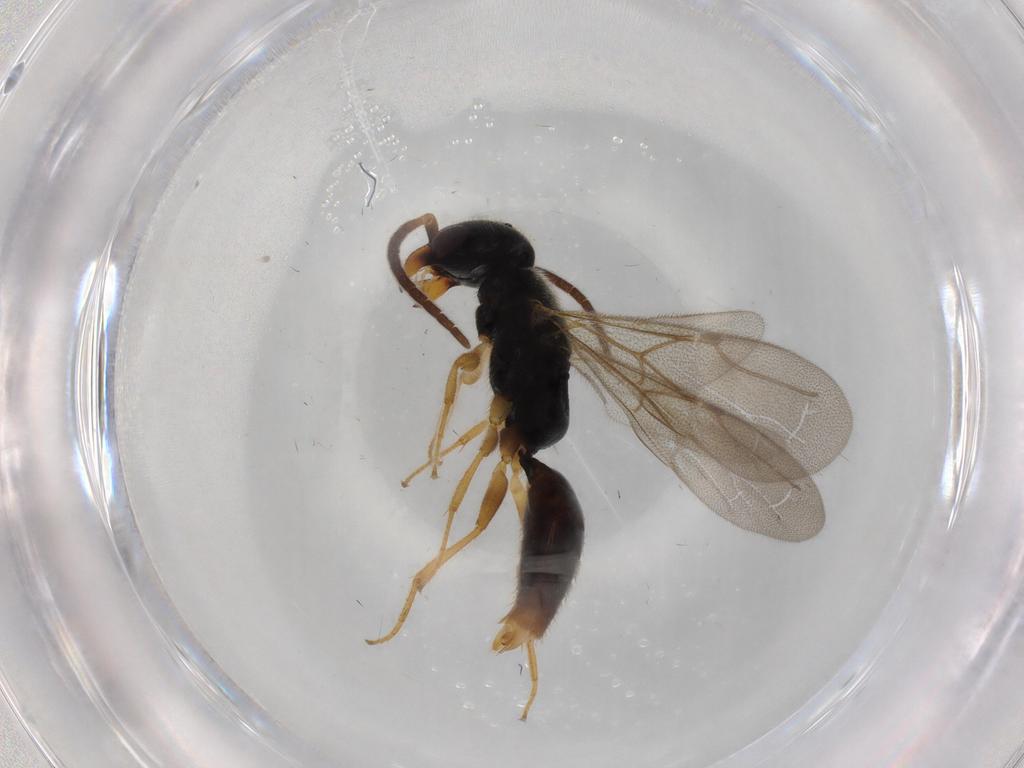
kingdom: Animalia
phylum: Arthropoda
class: Insecta
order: Hymenoptera
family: Bethylidae
